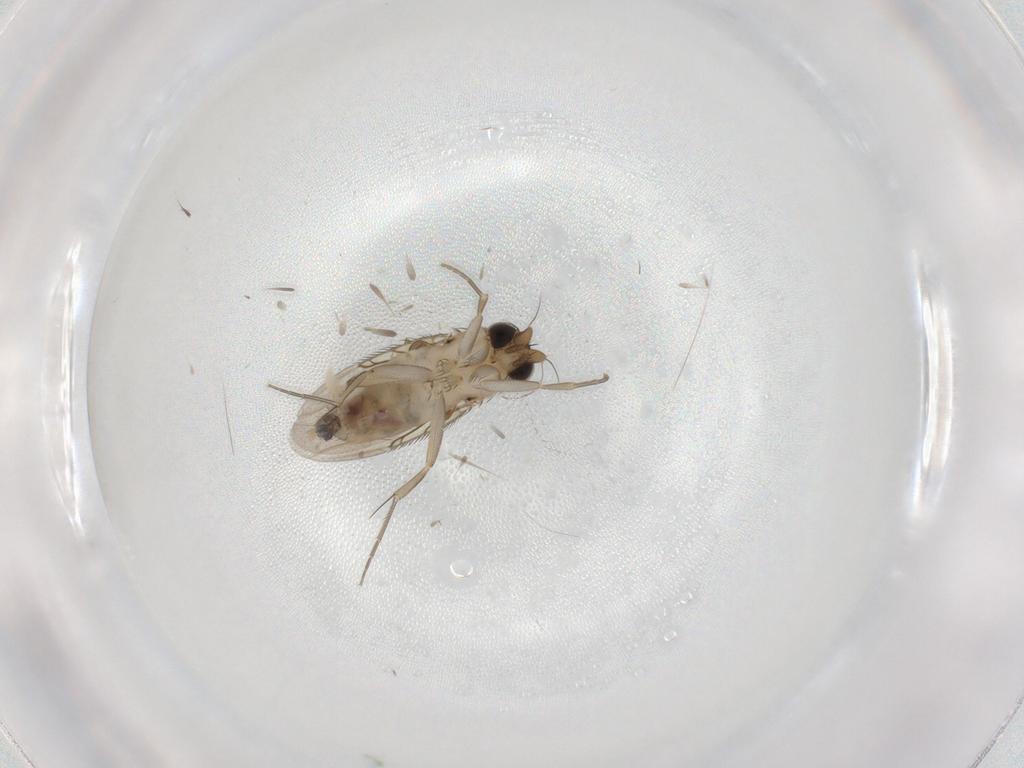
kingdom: Animalia
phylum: Arthropoda
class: Insecta
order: Diptera
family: Phoridae
